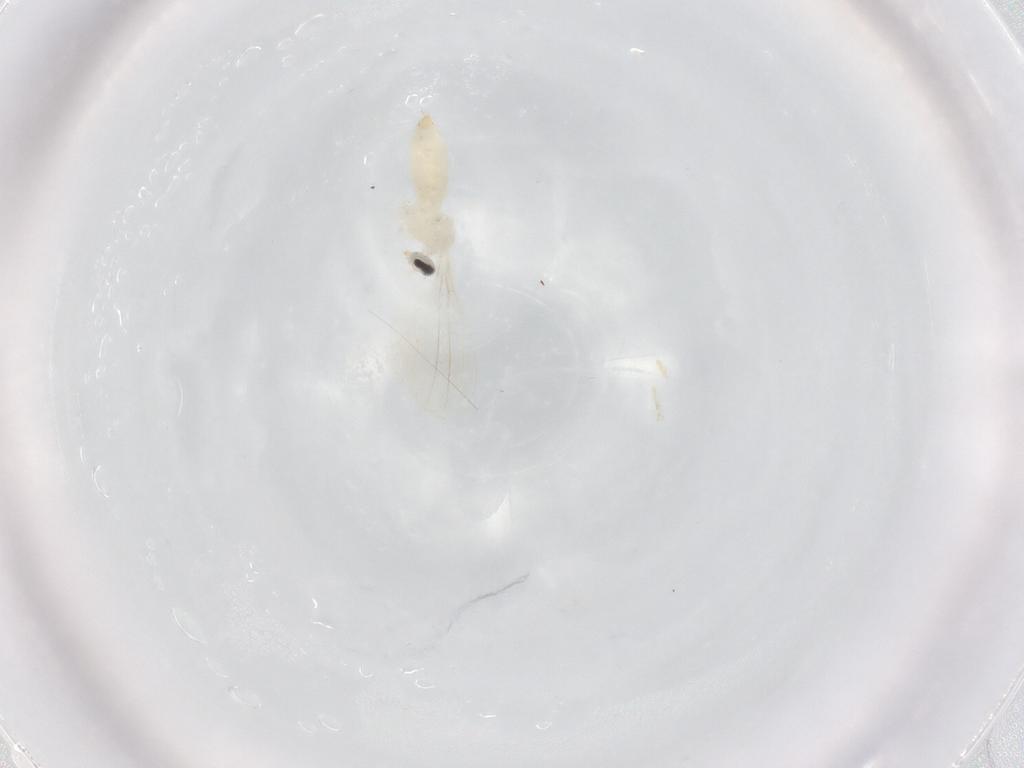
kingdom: Animalia
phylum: Arthropoda
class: Insecta
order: Diptera
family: Cecidomyiidae
